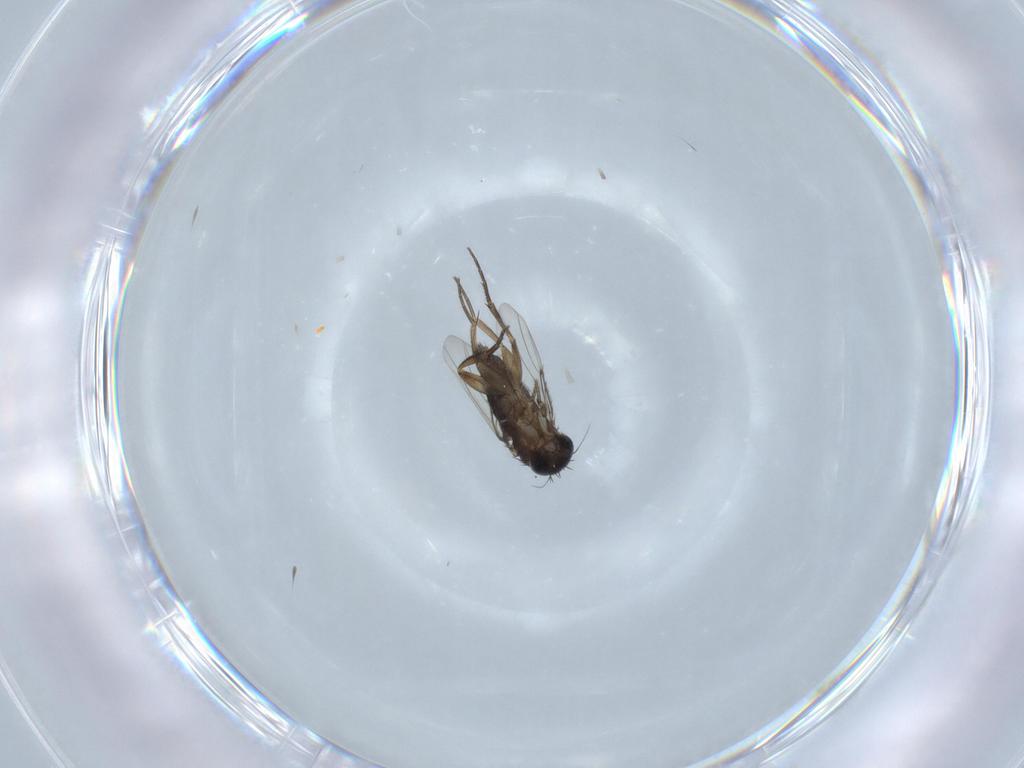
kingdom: Animalia
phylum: Arthropoda
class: Insecta
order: Diptera
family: Phoridae
